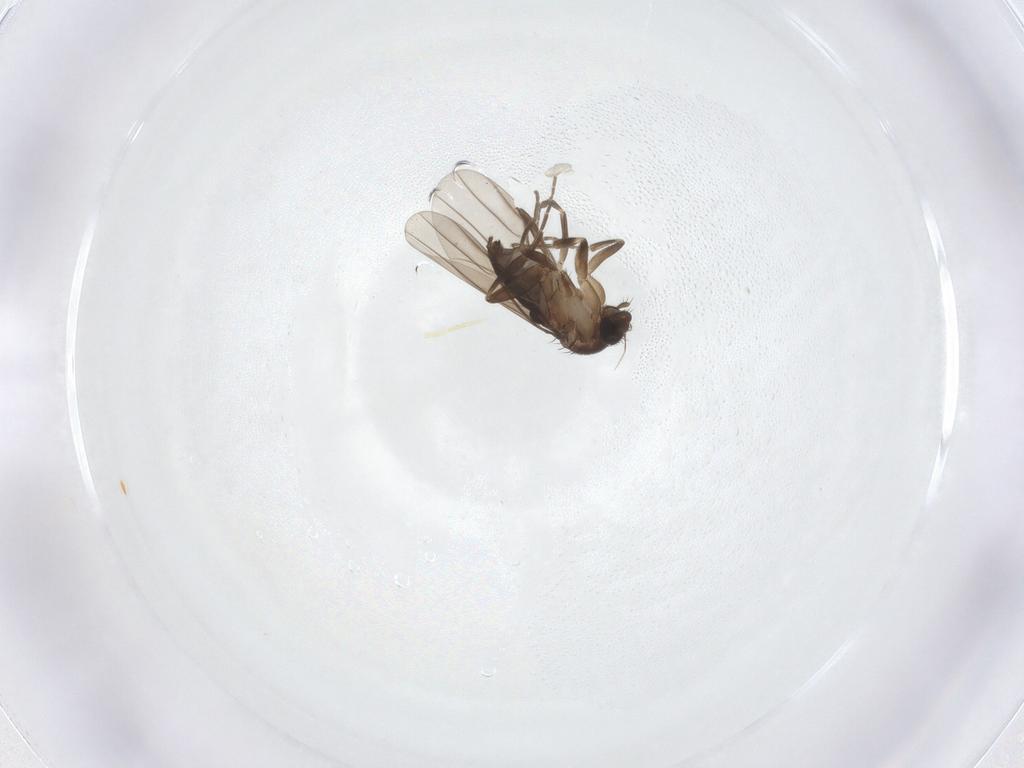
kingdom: Animalia
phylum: Arthropoda
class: Insecta
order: Diptera
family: Phoridae
